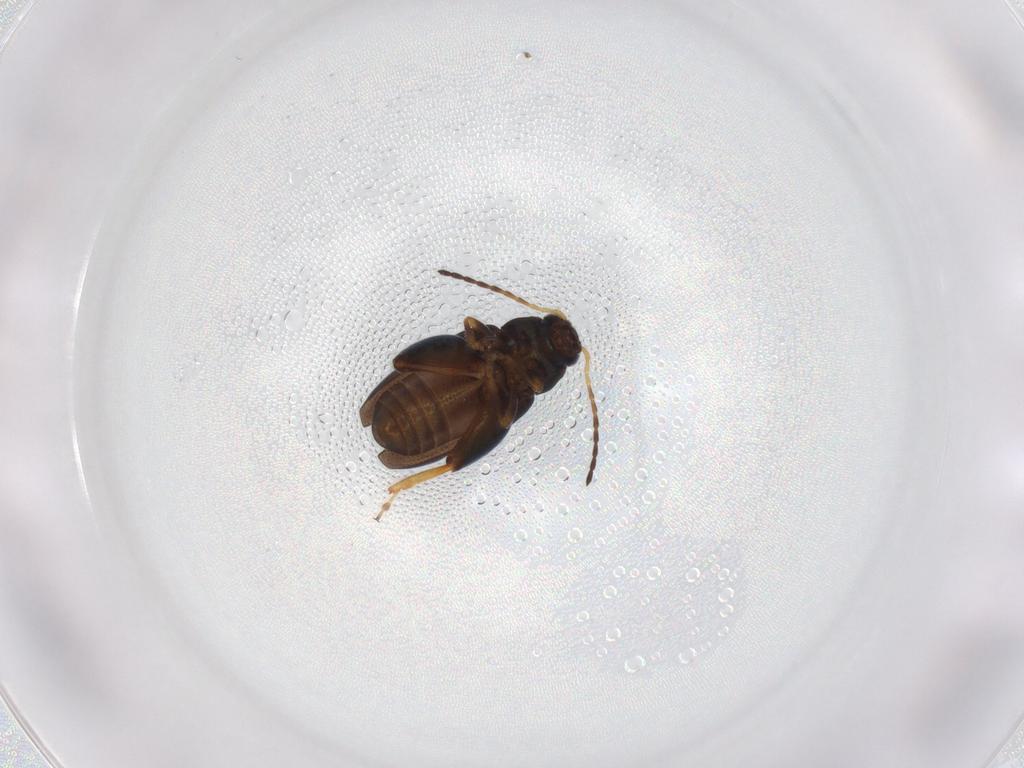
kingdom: Animalia
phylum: Arthropoda
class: Insecta
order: Coleoptera
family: Chrysomelidae
